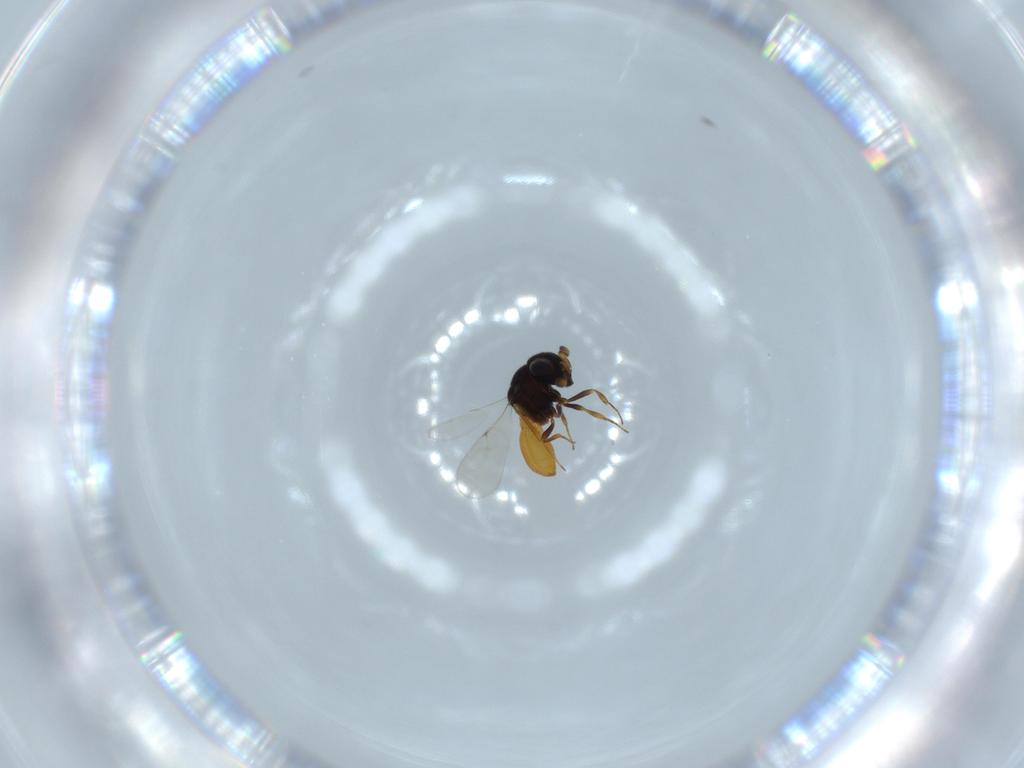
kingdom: Animalia
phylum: Arthropoda
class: Insecta
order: Hymenoptera
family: Scelionidae
